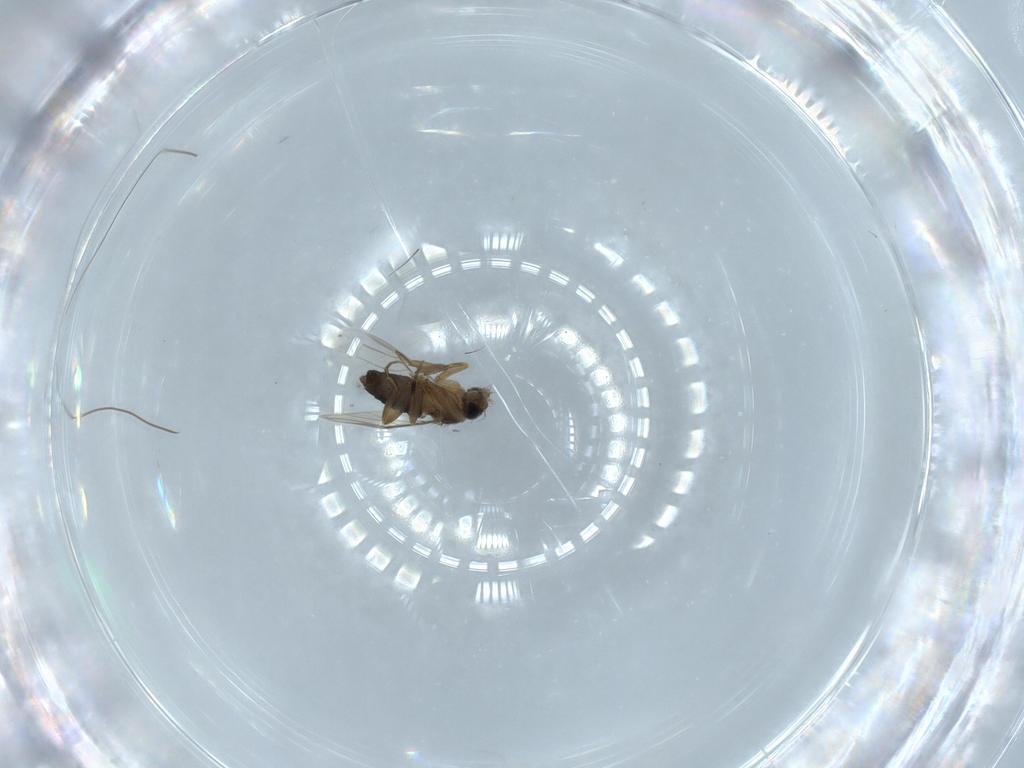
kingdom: Animalia
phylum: Arthropoda
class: Insecta
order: Diptera
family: Phoridae
